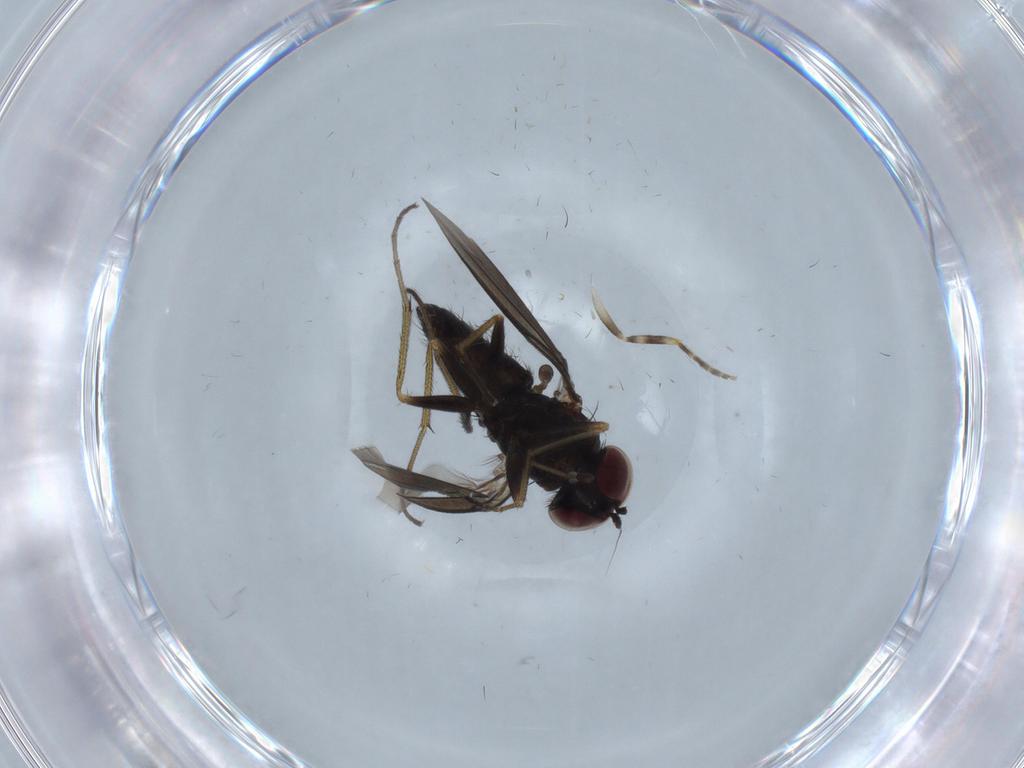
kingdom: Animalia
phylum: Arthropoda
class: Insecta
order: Diptera
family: Dolichopodidae
